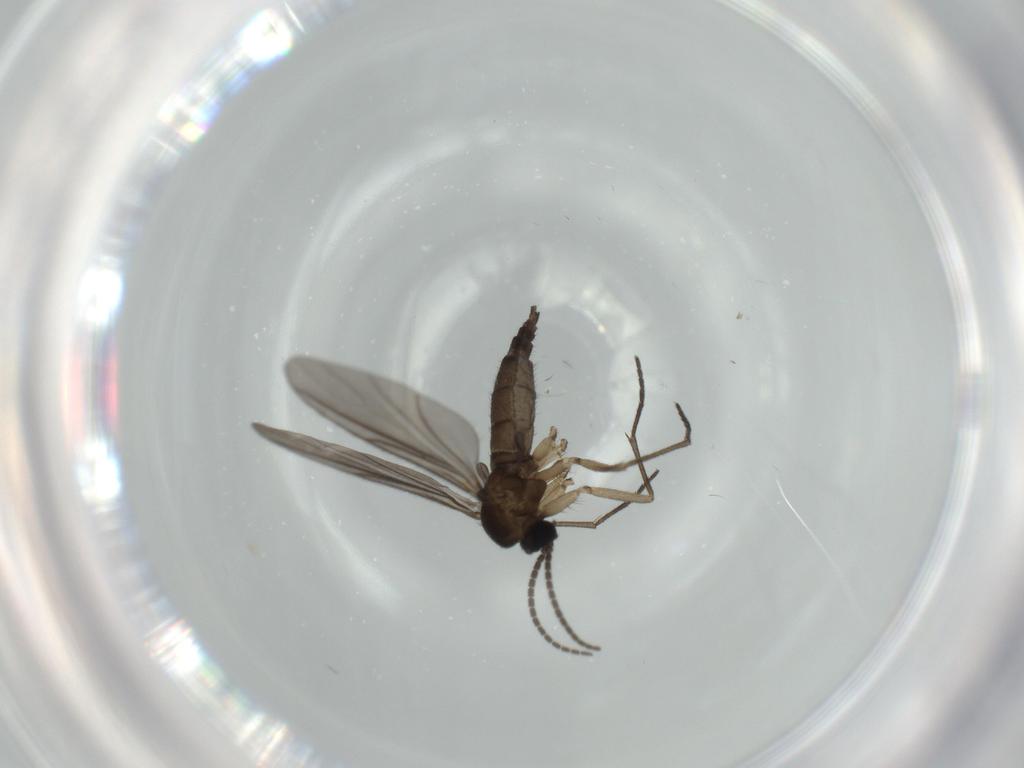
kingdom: Animalia
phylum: Arthropoda
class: Insecta
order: Diptera
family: Sciaridae
